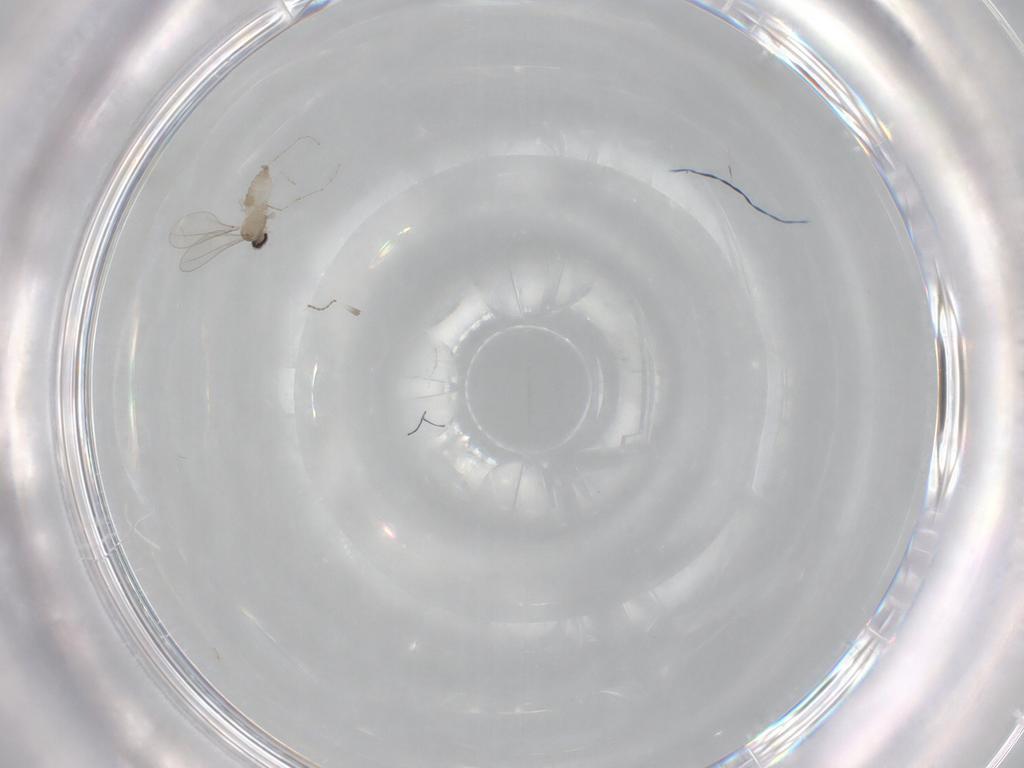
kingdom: Animalia
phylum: Arthropoda
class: Insecta
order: Diptera
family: Cecidomyiidae
